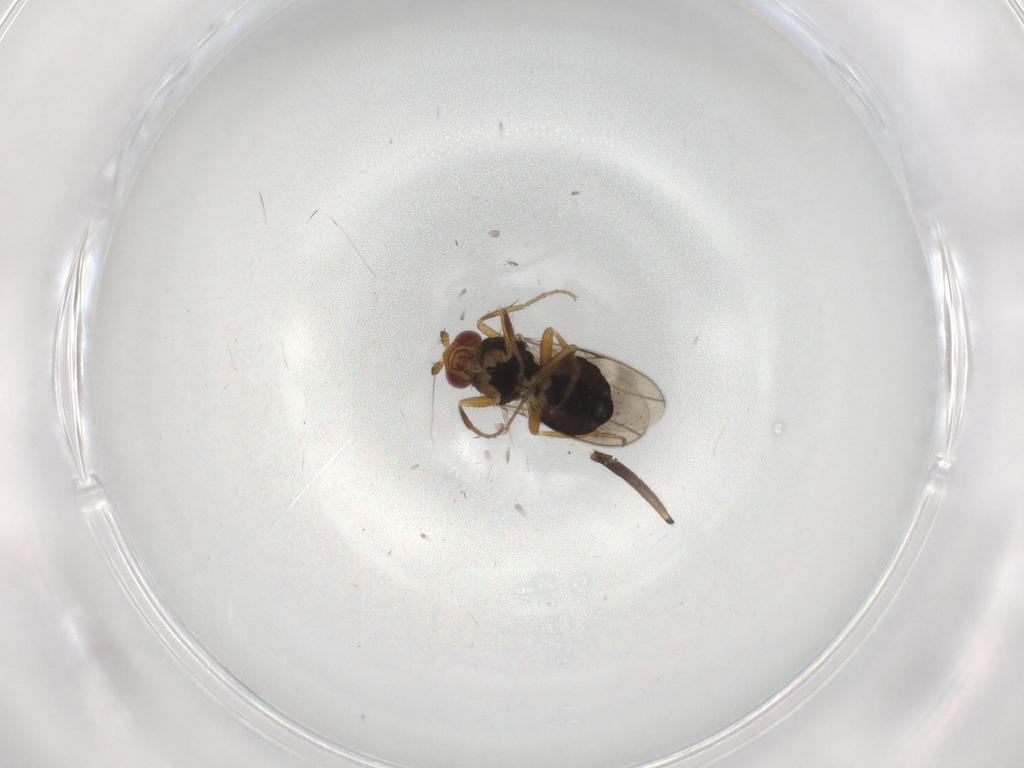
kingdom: Animalia
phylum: Arthropoda
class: Insecta
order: Diptera
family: Sphaeroceridae
